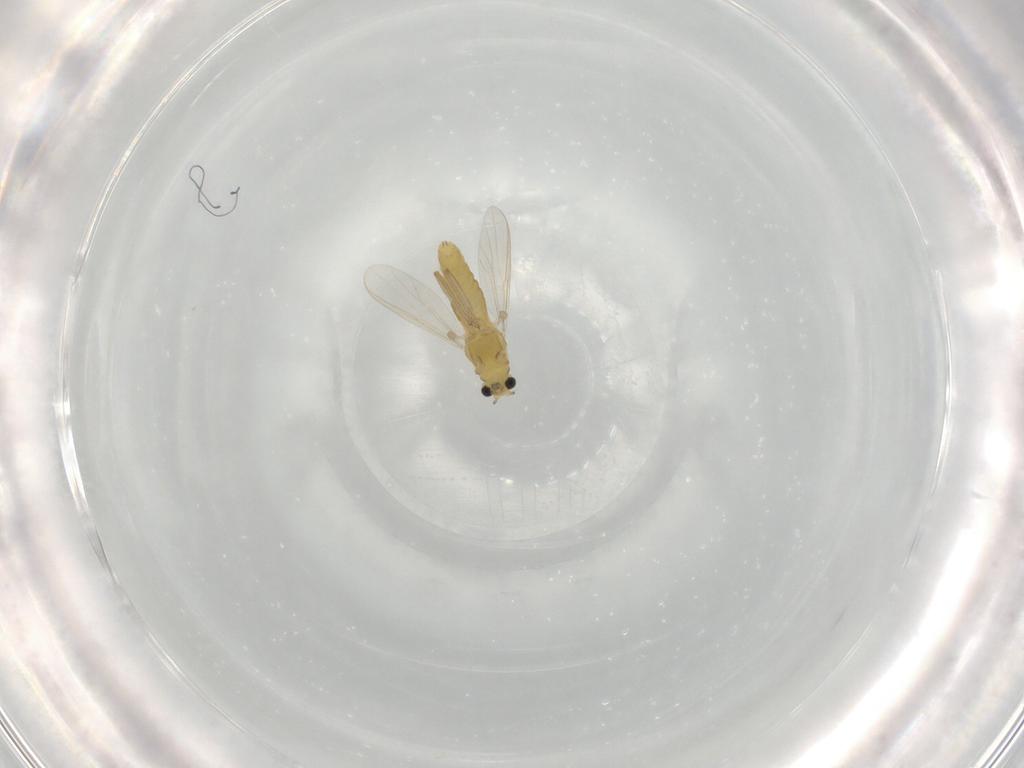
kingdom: Animalia
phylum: Arthropoda
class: Insecta
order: Diptera
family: Chironomidae
